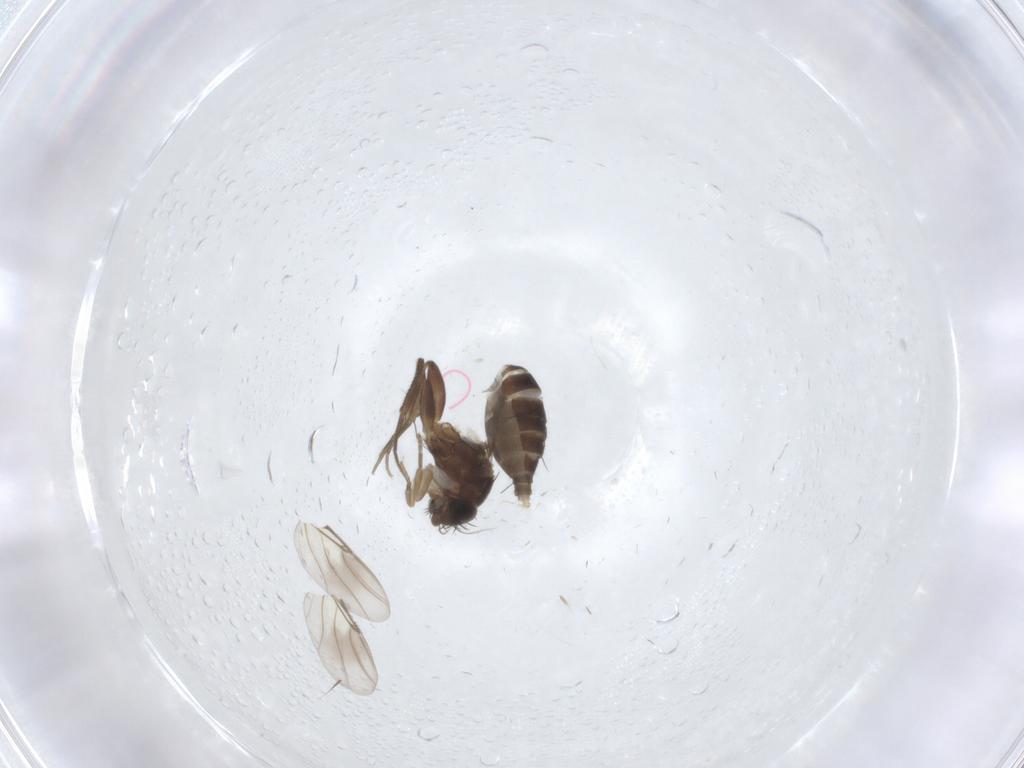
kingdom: Animalia
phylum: Arthropoda
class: Insecta
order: Diptera
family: Phoridae
